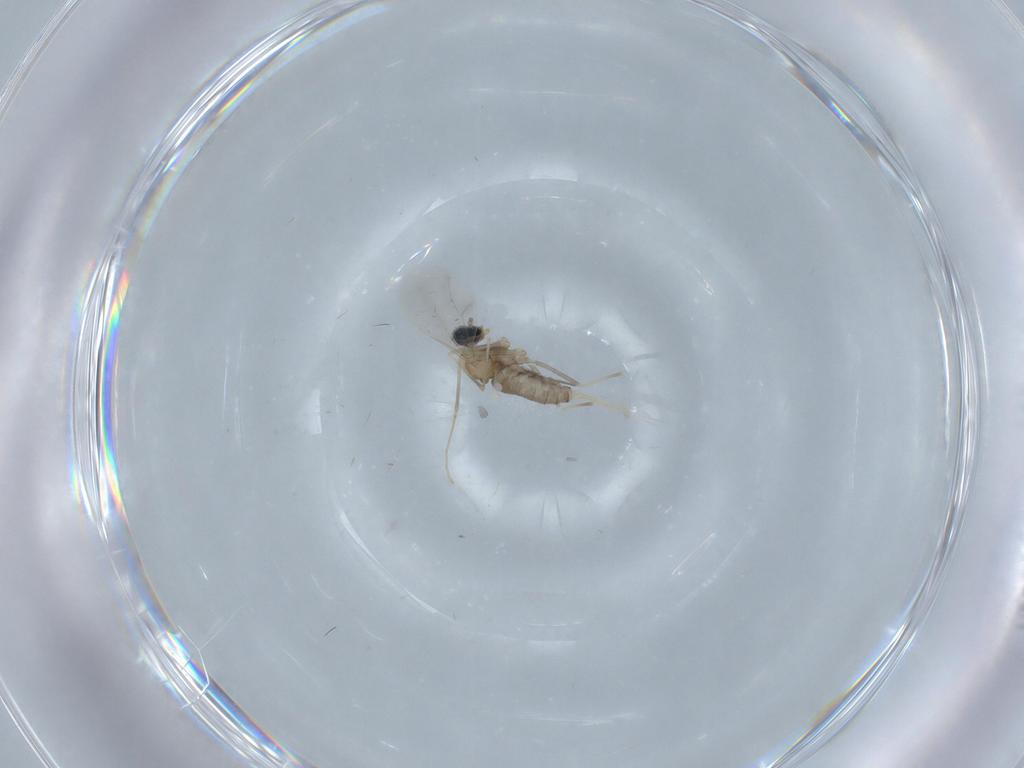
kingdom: Animalia
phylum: Arthropoda
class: Insecta
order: Diptera
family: Cecidomyiidae
